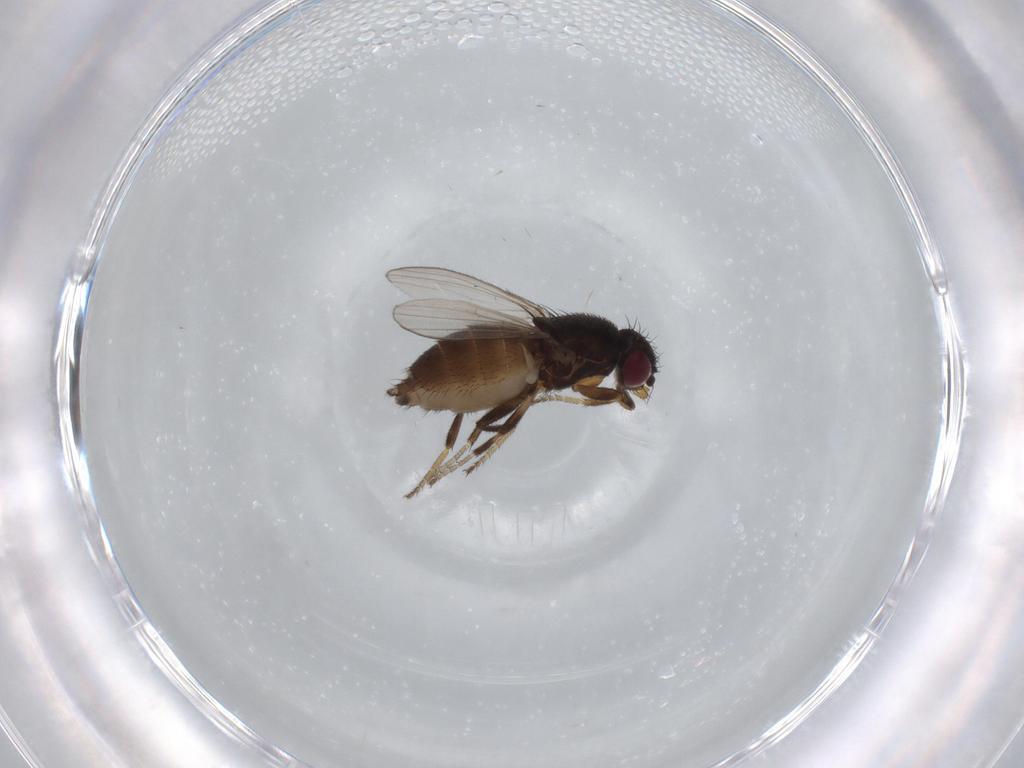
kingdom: Animalia
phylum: Arthropoda
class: Insecta
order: Diptera
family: Milichiidae
